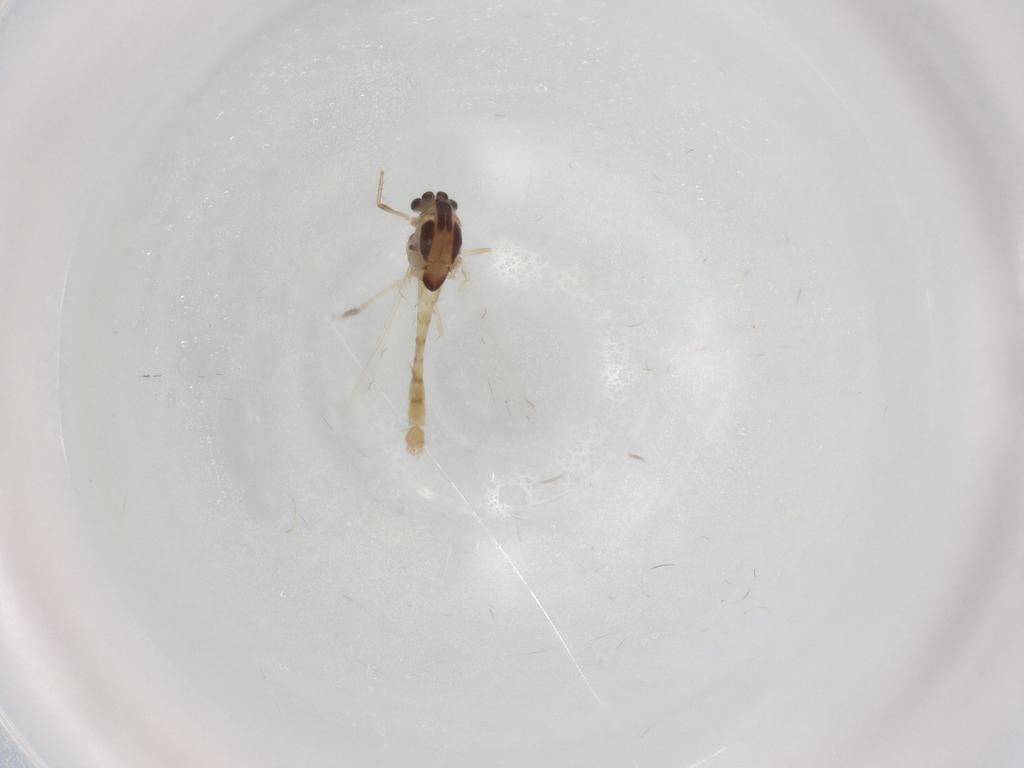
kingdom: Animalia
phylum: Arthropoda
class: Insecta
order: Diptera
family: Chironomidae
